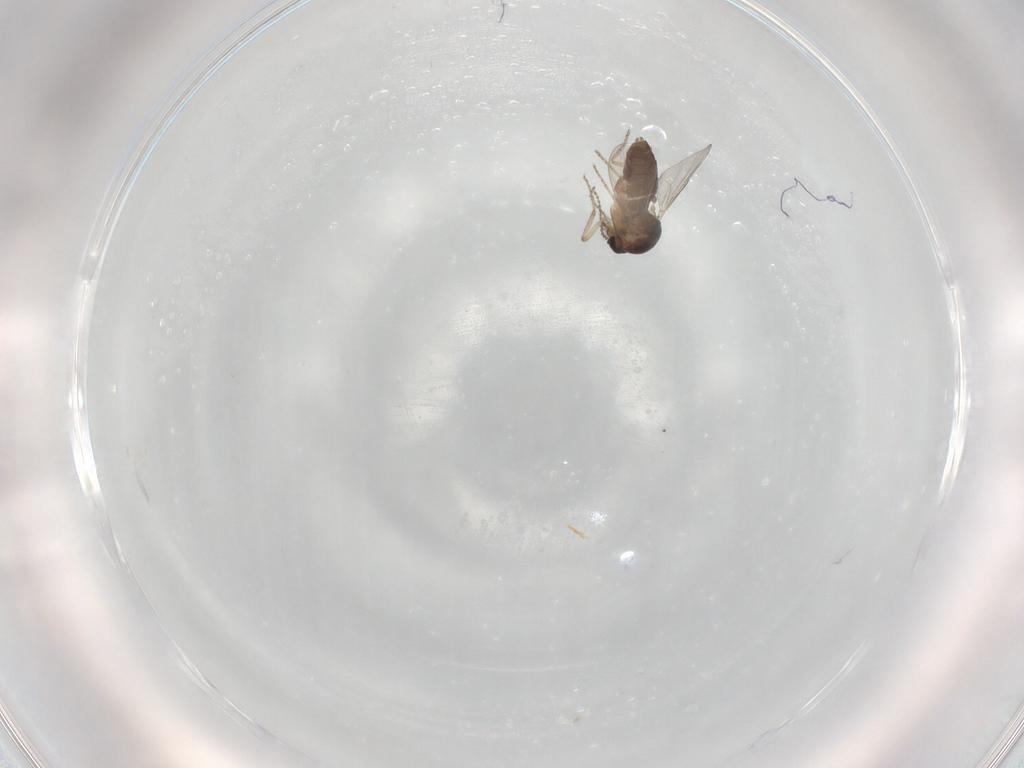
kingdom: Animalia
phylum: Arthropoda
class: Insecta
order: Diptera
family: Ceratopogonidae
